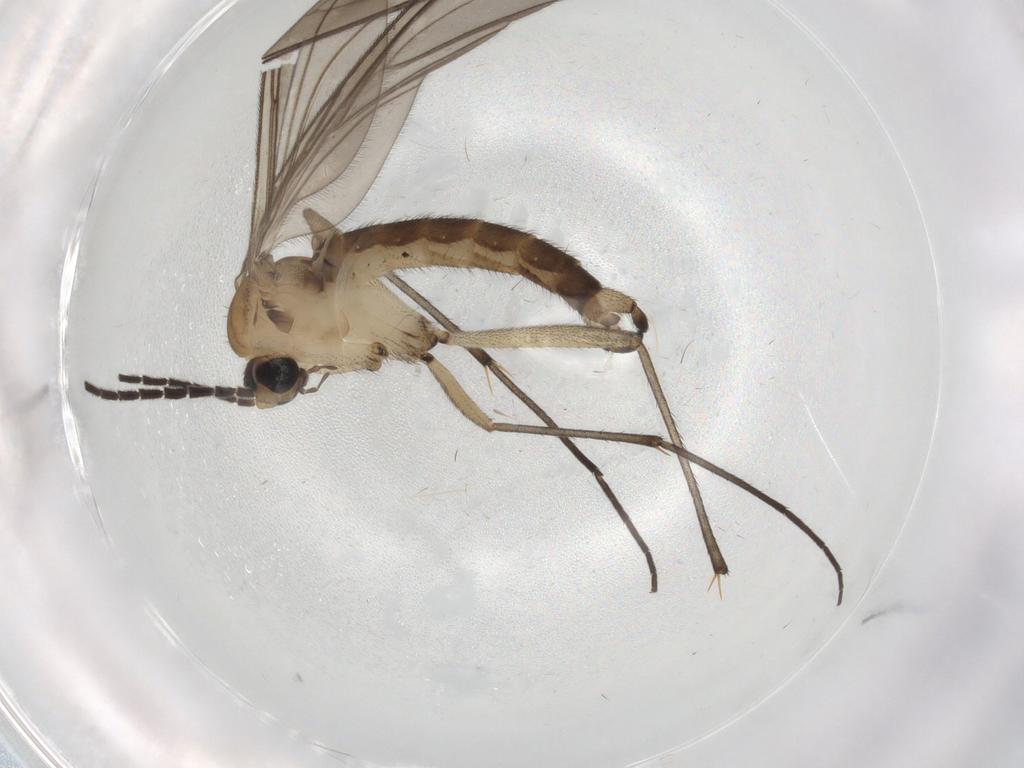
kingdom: Animalia
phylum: Arthropoda
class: Insecta
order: Diptera
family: Sciaridae
